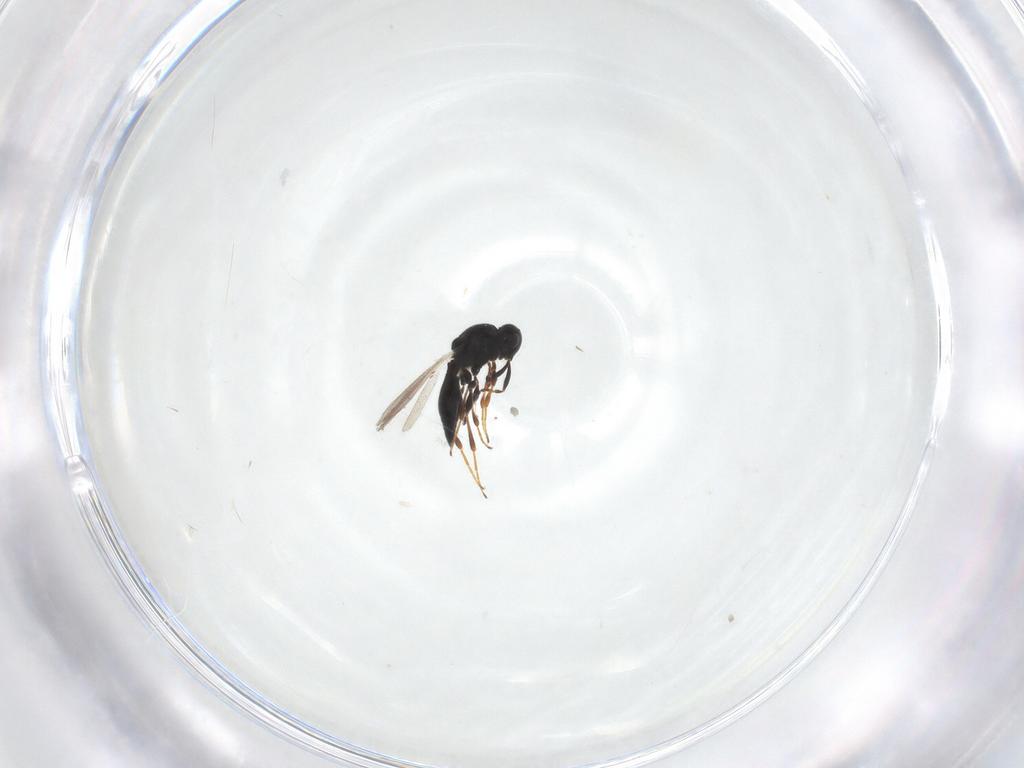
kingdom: Animalia
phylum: Arthropoda
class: Insecta
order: Hymenoptera
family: Platygastridae
